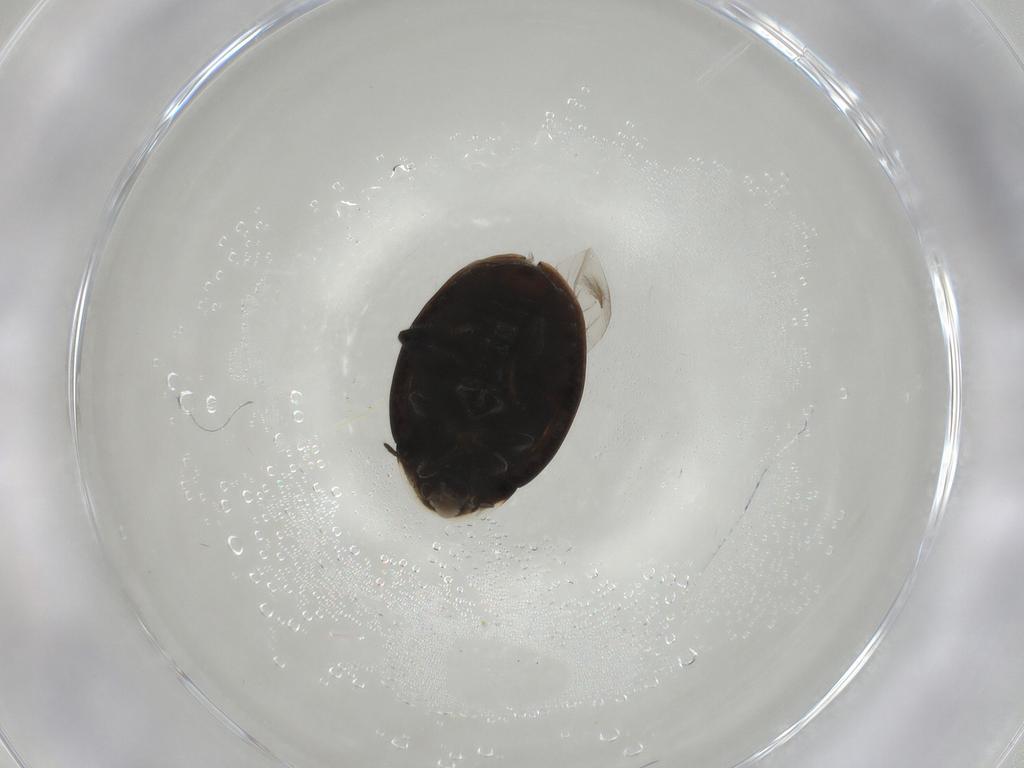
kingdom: Animalia
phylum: Arthropoda
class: Insecta
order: Coleoptera
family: Coccinellidae
